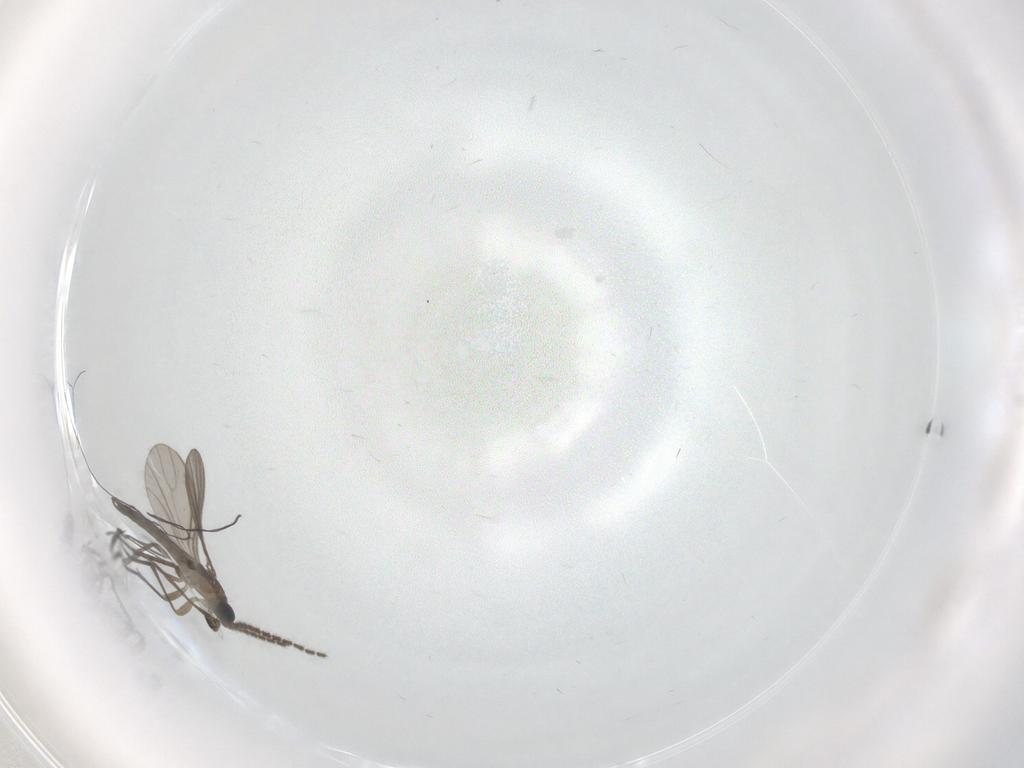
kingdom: Animalia
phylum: Arthropoda
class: Insecta
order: Diptera
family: Sciaridae
